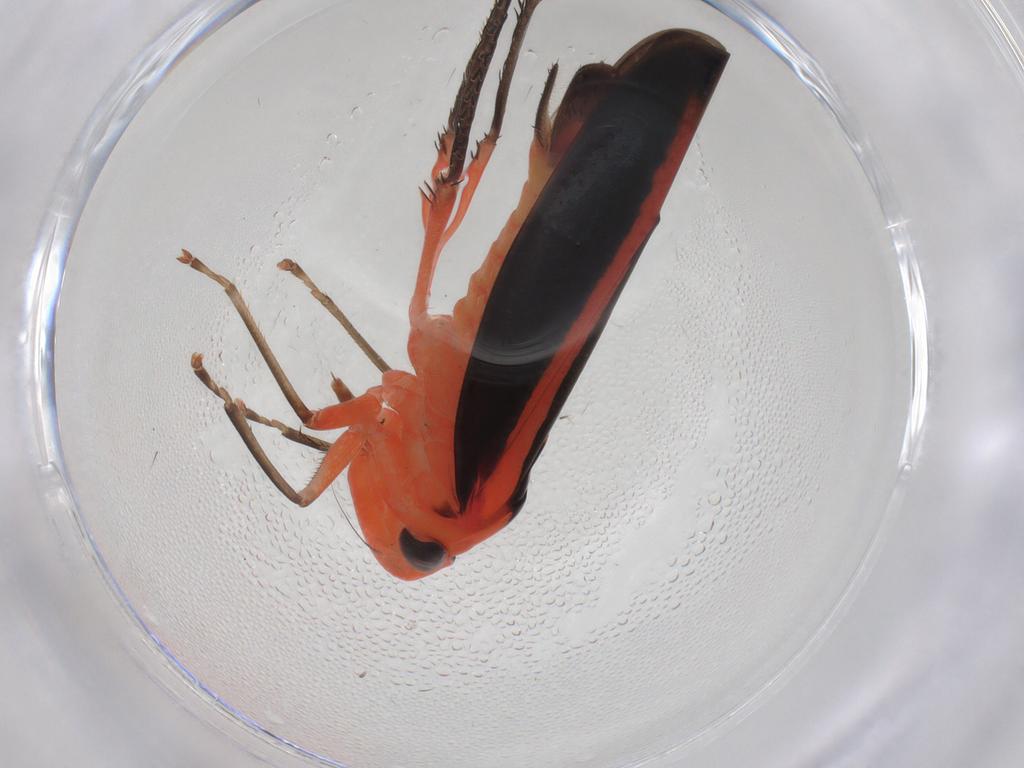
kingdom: Animalia
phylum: Arthropoda
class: Insecta
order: Hemiptera
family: Cicadellidae
